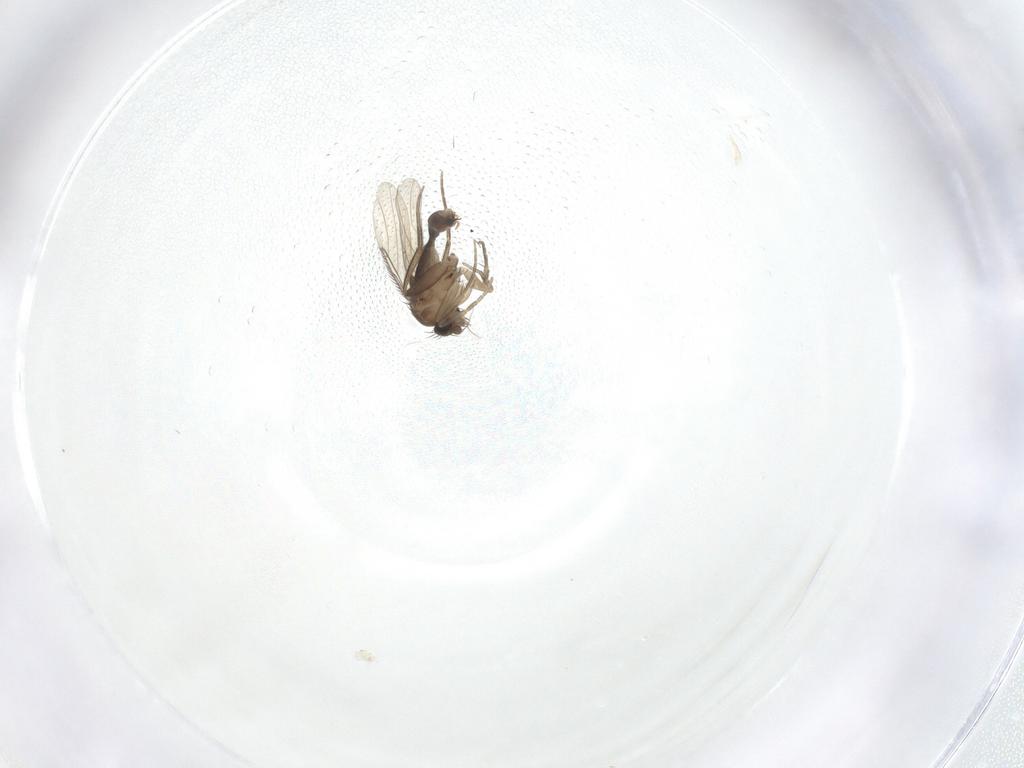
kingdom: Animalia
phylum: Arthropoda
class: Insecta
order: Diptera
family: Phoridae
